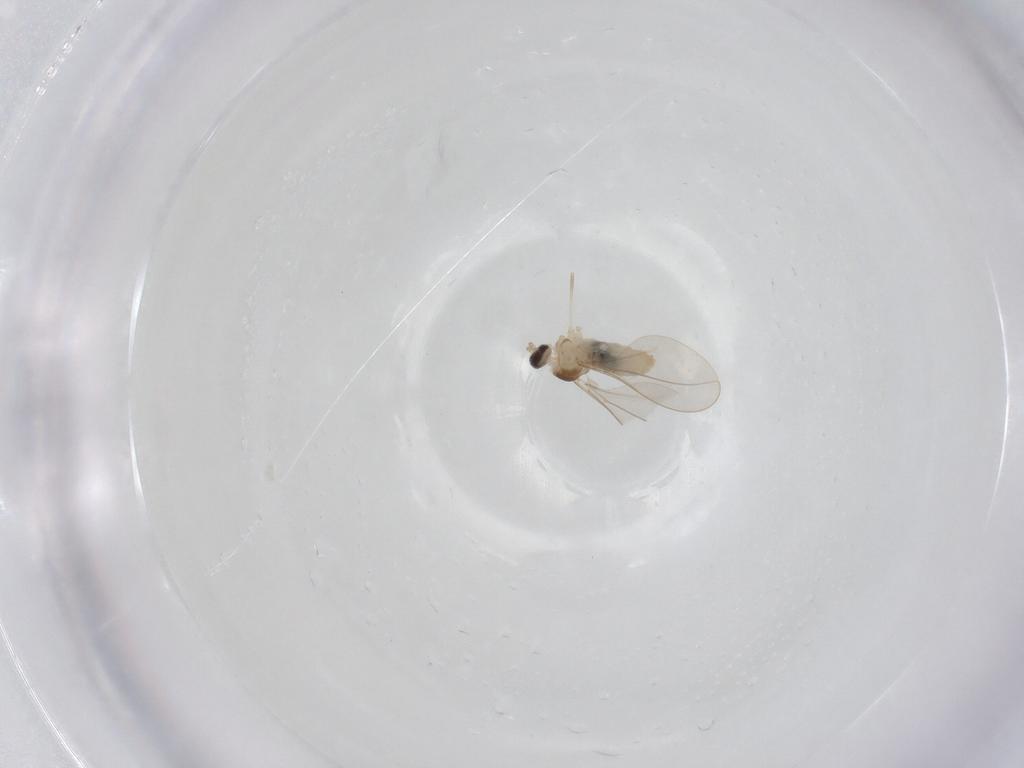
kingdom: Animalia
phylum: Arthropoda
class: Insecta
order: Diptera
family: Cecidomyiidae
